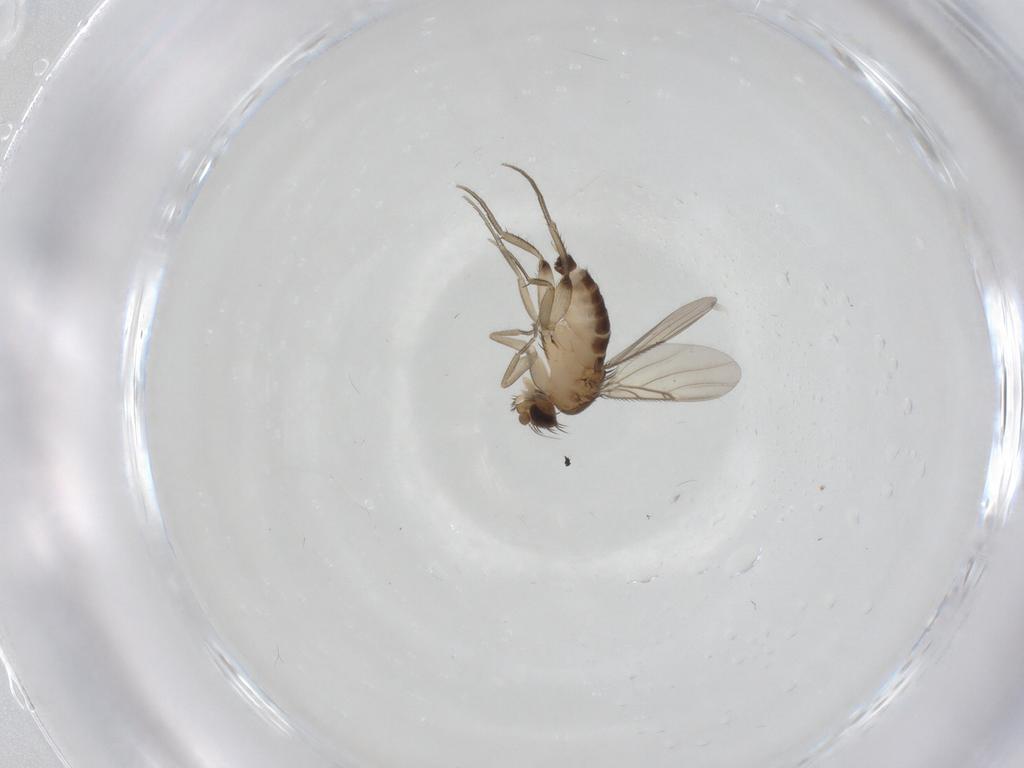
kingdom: Animalia
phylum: Arthropoda
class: Insecta
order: Diptera
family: Phoridae
